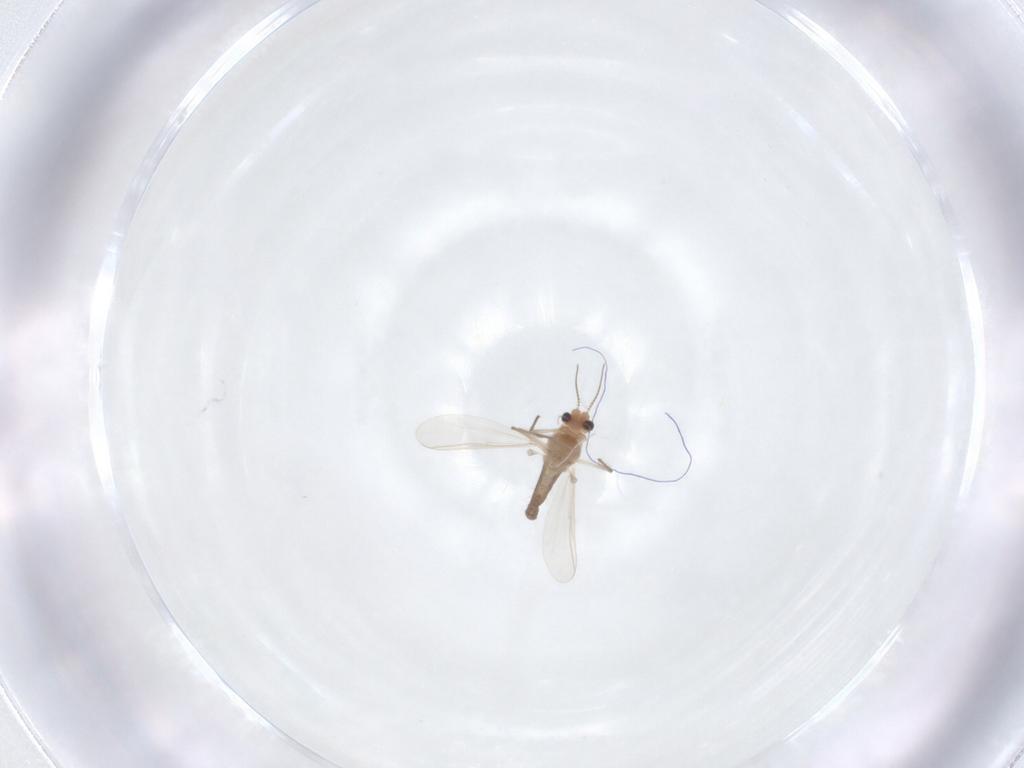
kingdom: Animalia
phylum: Arthropoda
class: Insecta
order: Diptera
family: Chironomidae
